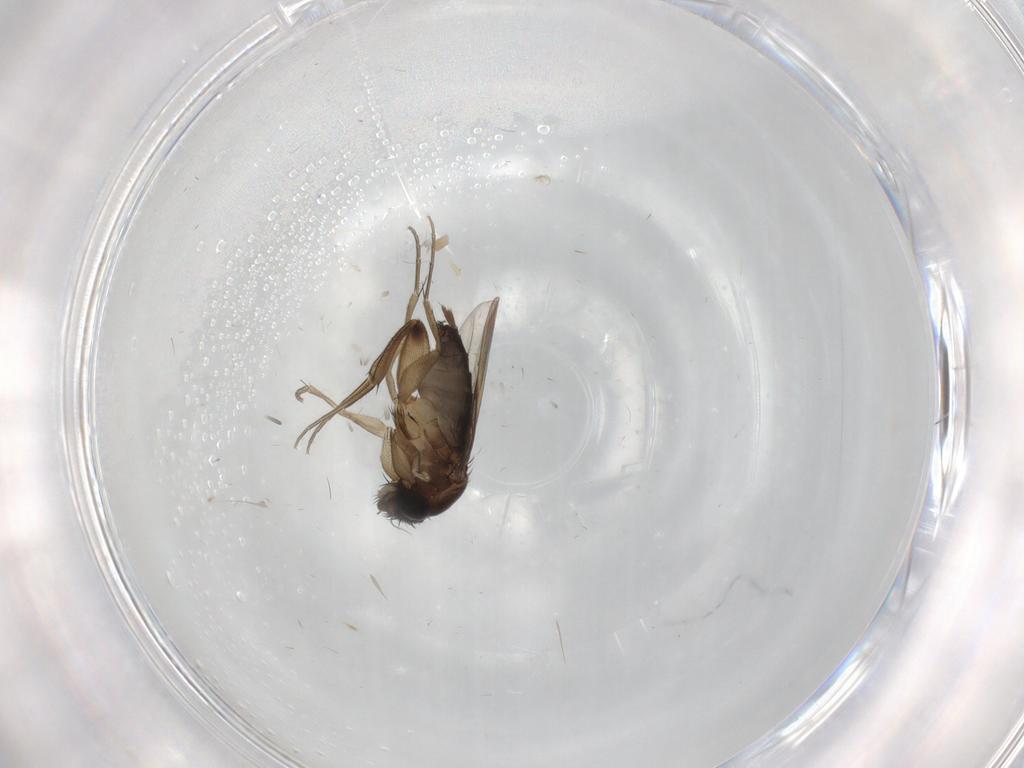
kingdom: Animalia
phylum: Arthropoda
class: Insecta
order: Diptera
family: Phoridae
